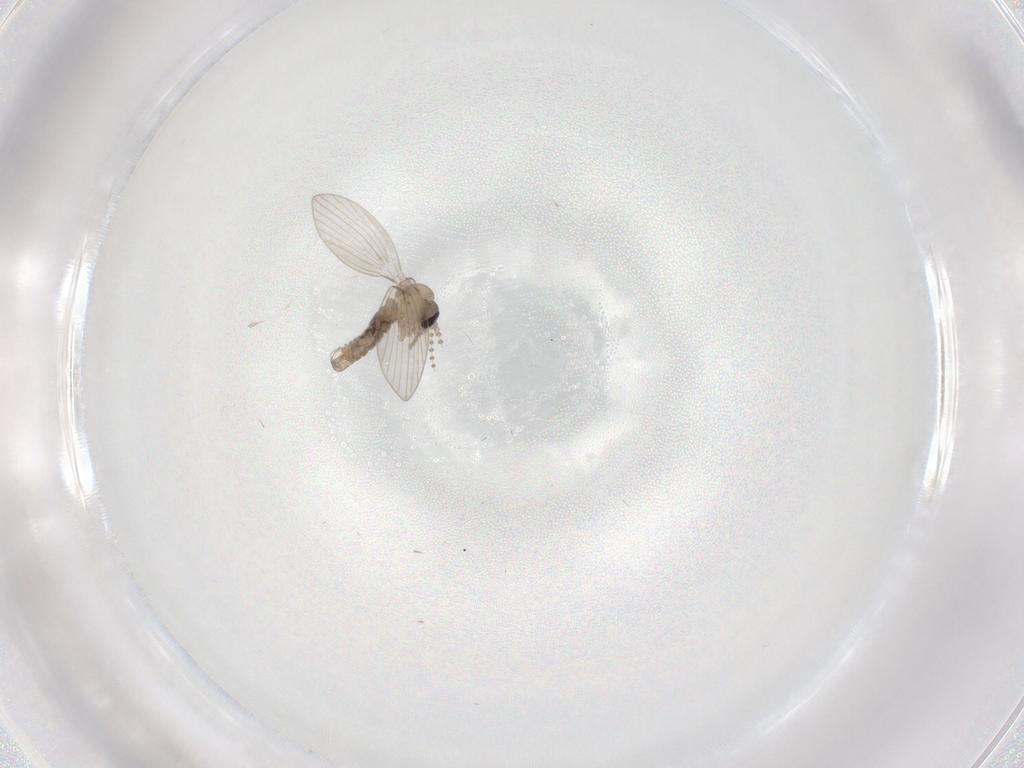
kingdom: Animalia
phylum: Arthropoda
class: Insecta
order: Diptera
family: Psychodidae
